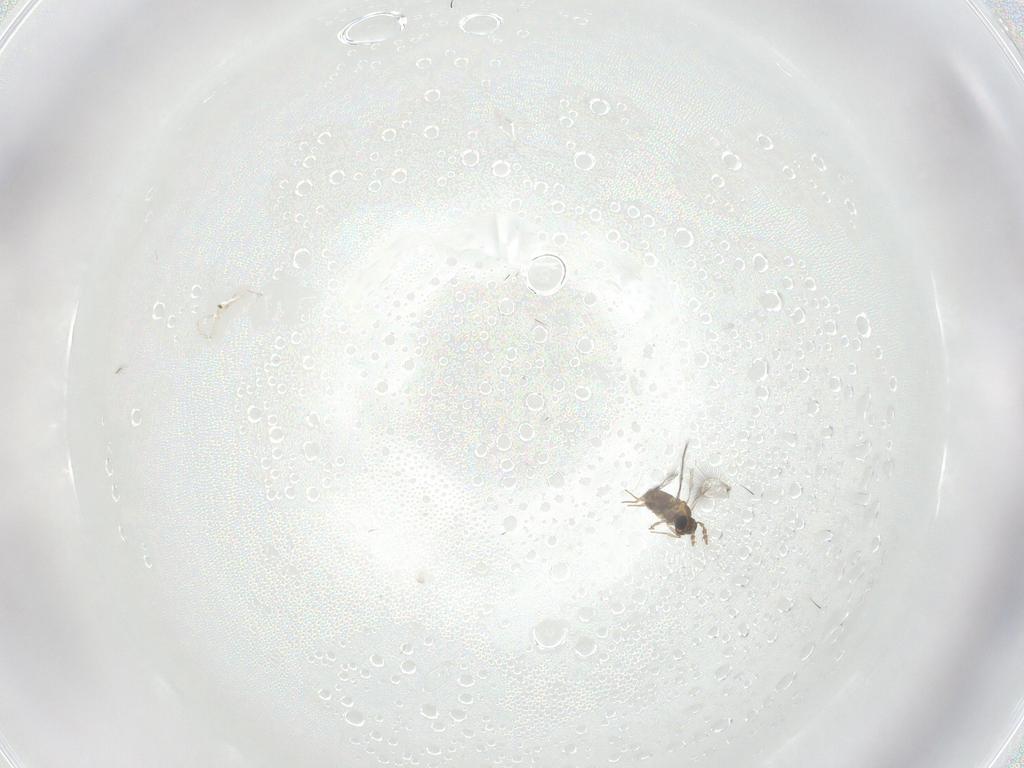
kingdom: Animalia
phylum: Arthropoda
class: Insecta
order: Hymenoptera
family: Trichogrammatidae
